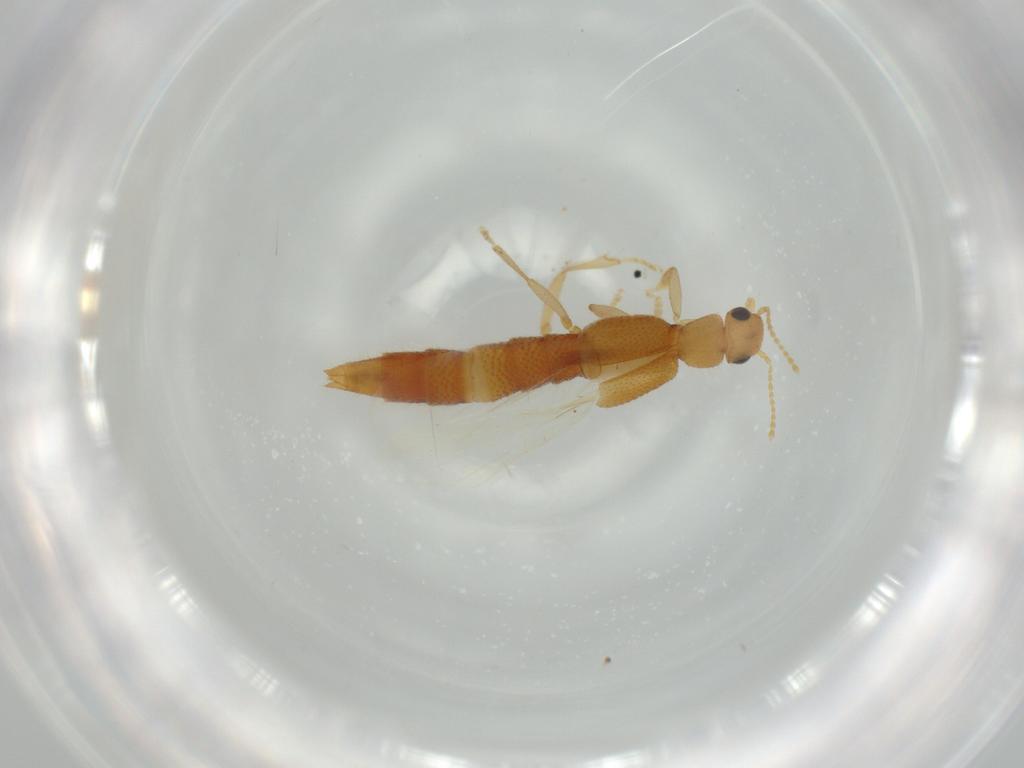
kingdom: Animalia
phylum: Arthropoda
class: Insecta
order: Coleoptera
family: Staphylinidae
